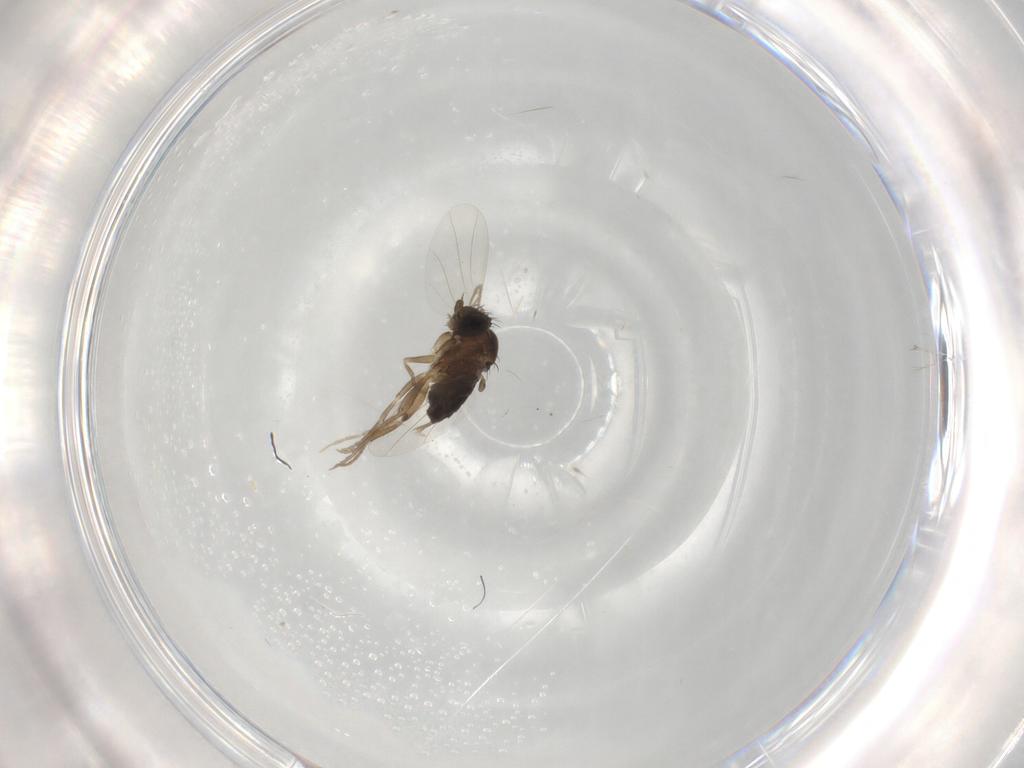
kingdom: Animalia
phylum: Arthropoda
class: Insecta
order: Diptera
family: Phoridae
